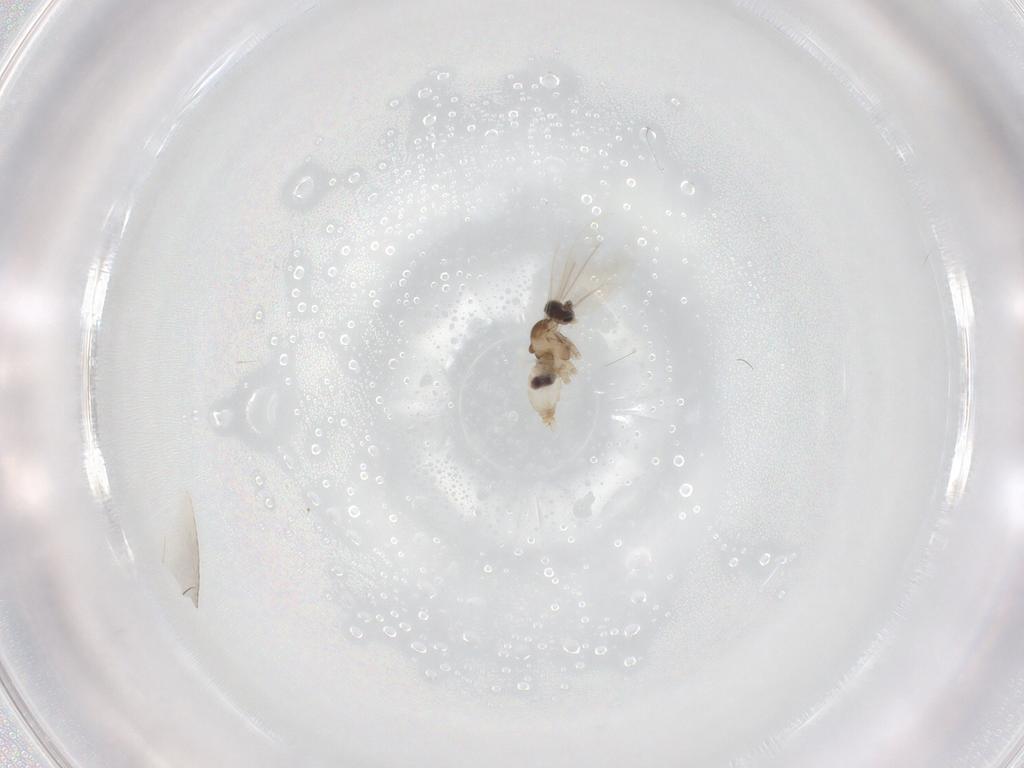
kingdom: Animalia
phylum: Arthropoda
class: Insecta
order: Diptera
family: Cecidomyiidae
